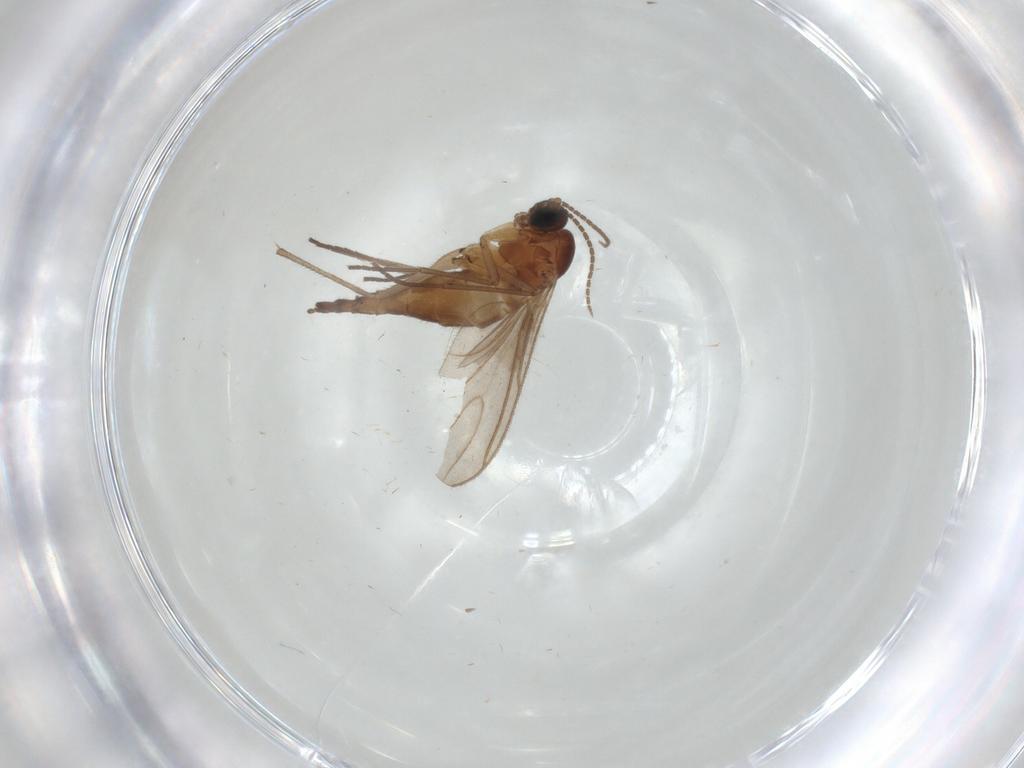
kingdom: Animalia
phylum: Arthropoda
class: Insecta
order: Diptera
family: Sciaridae
